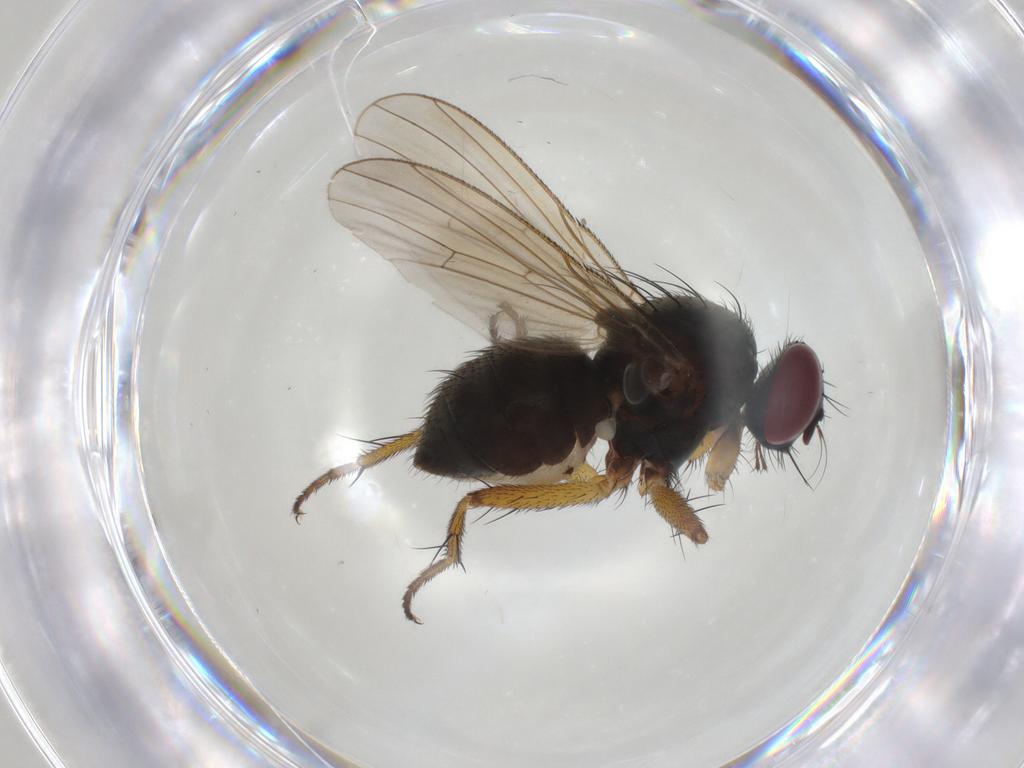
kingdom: Animalia
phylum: Arthropoda
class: Insecta
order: Diptera
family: Muscidae
